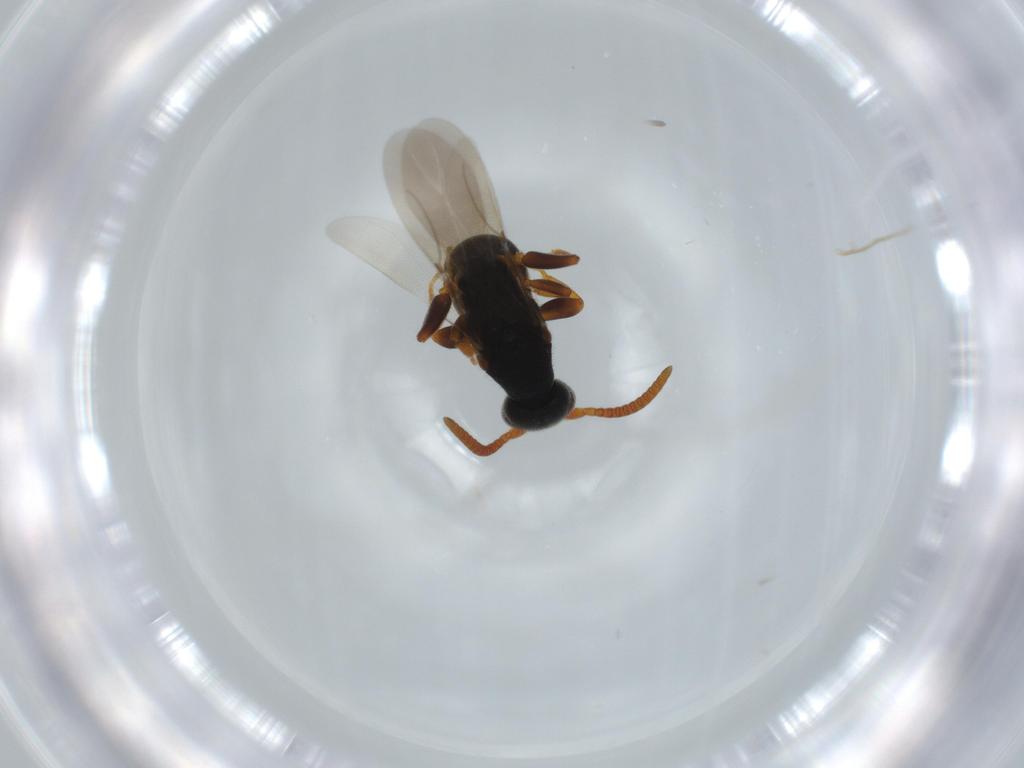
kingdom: Animalia
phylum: Arthropoda
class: Insecta
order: Hymenoptera
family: Bethylidae
